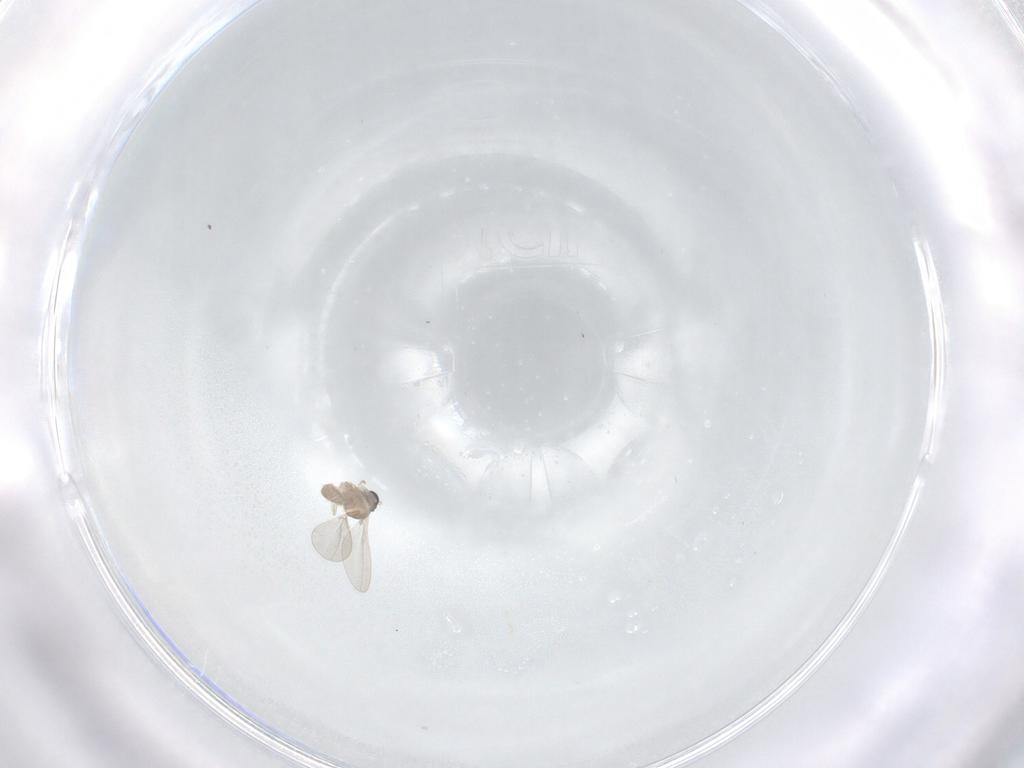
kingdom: Animalia
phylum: Arthropoda
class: Insecta
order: Diptera
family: Cecidomyiidae
